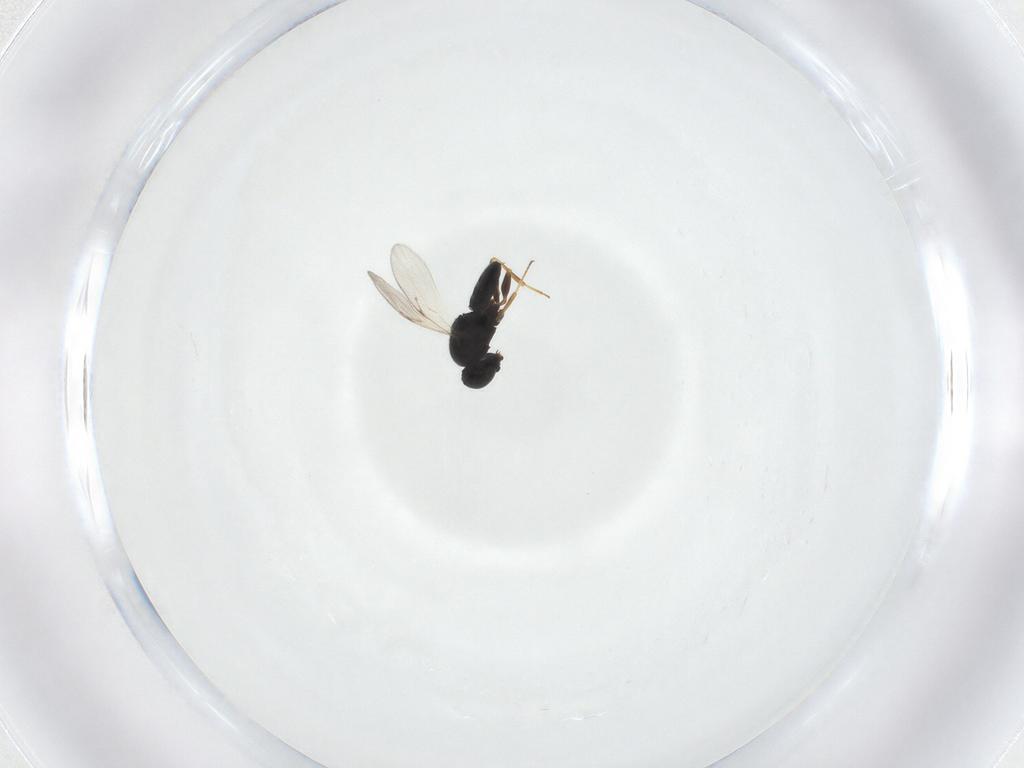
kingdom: Animalia
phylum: Arthropoda
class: Insecta
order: Hymenoptera
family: Scelionidae
